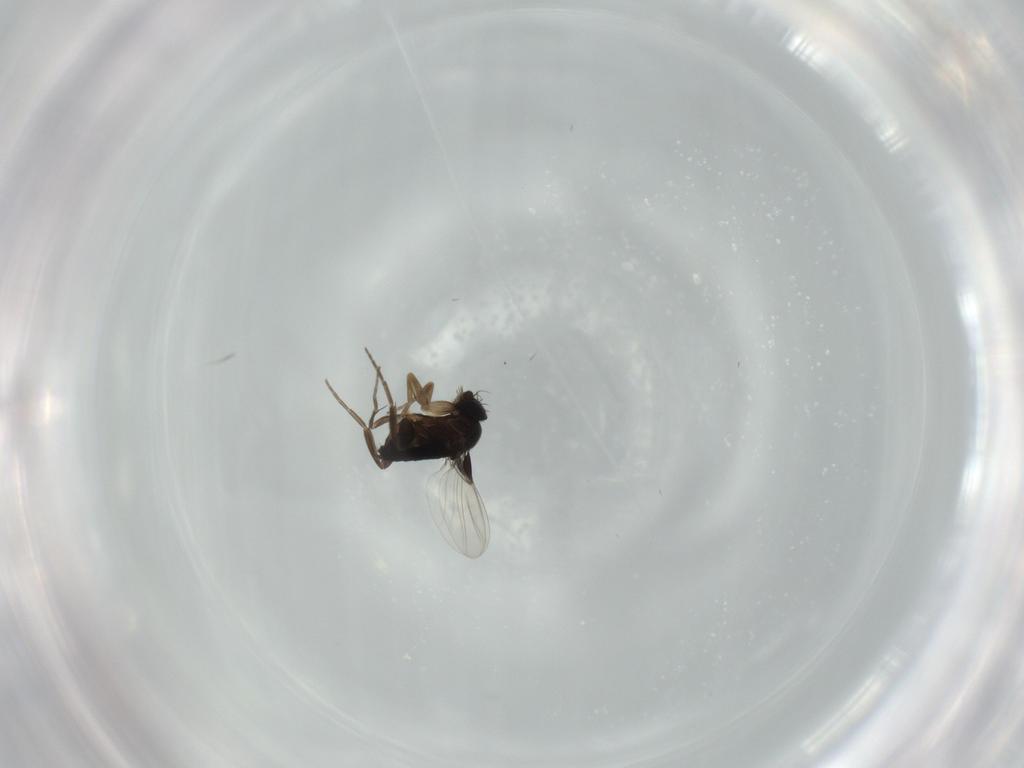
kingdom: Animalia
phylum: Arthropoda
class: Insecta
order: Diptera
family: Phoridae
